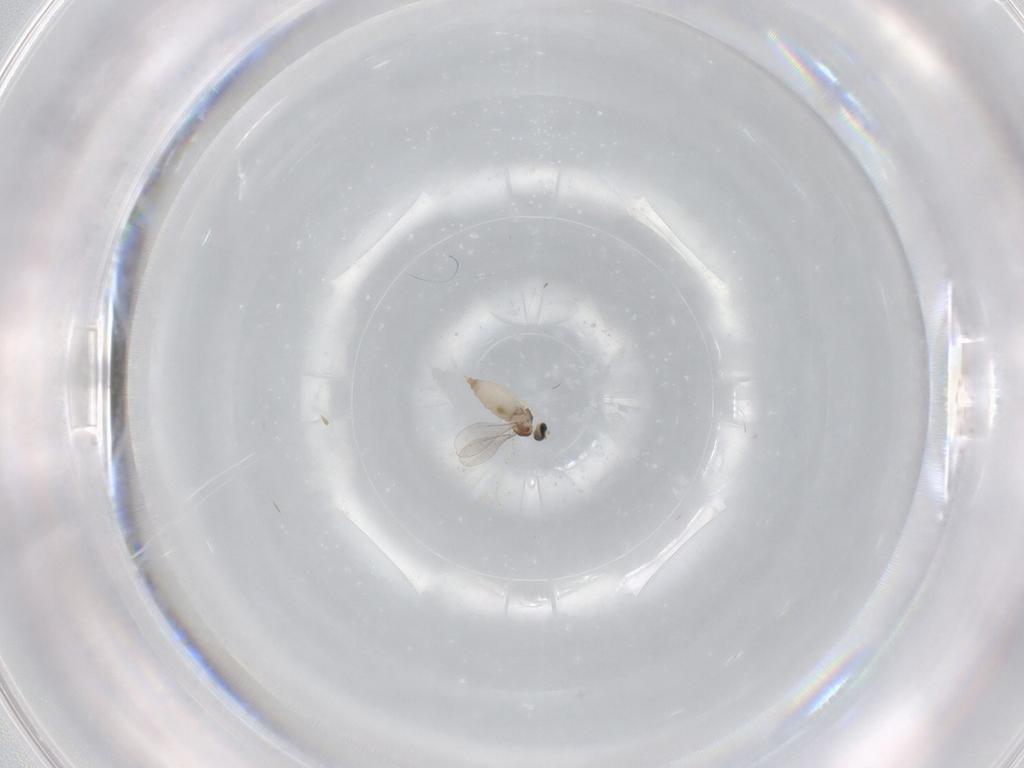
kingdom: Animalia
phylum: Arthropoda
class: Insecta
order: Diptera
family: Cecidomyiidae
